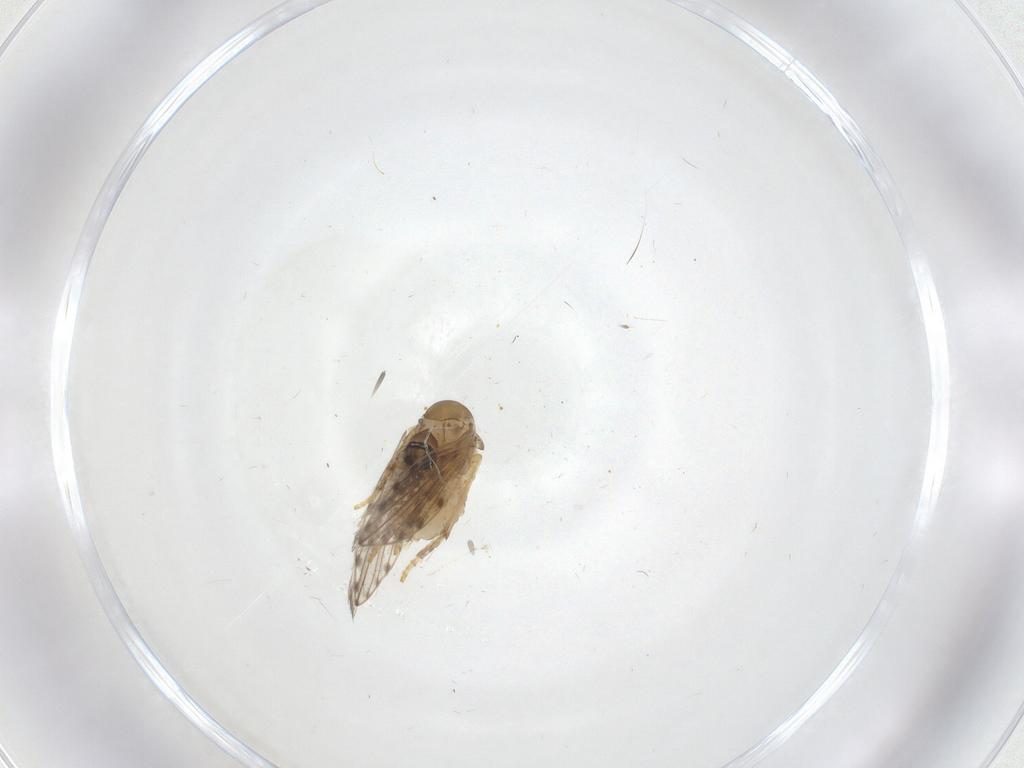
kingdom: Animalia
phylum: Arthropoda
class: Insecta
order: Diptera
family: Psychodidae
